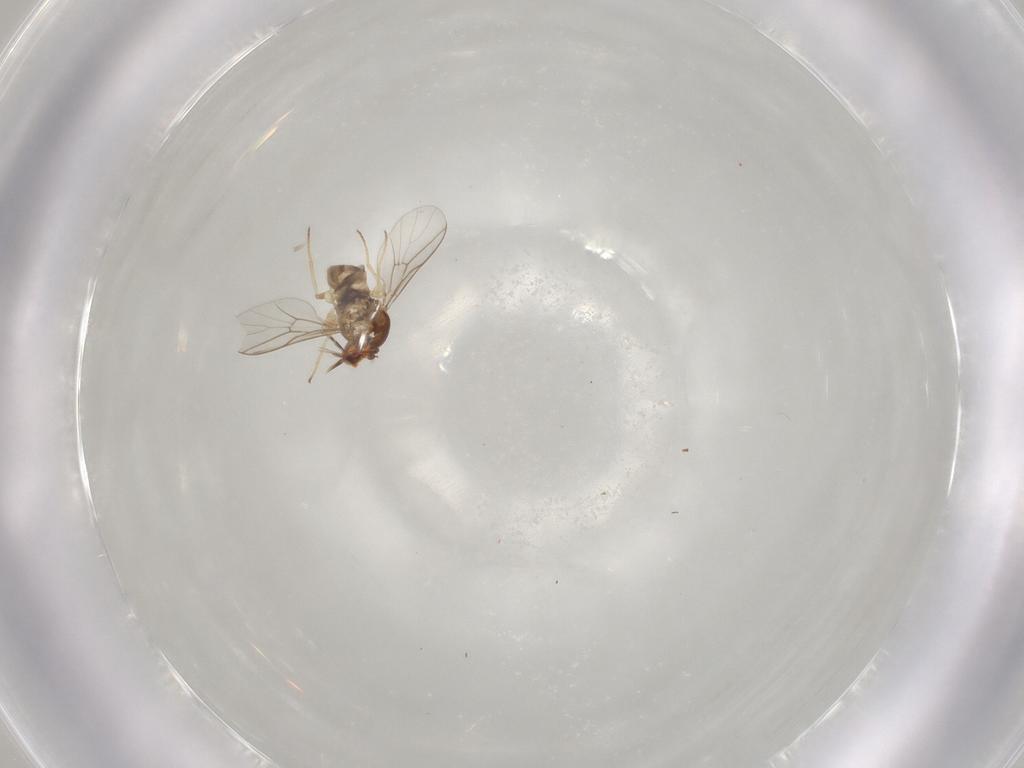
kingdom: Animalia
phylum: Arthropoda
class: Insecta
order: Diptera
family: Mythicomyiidae
